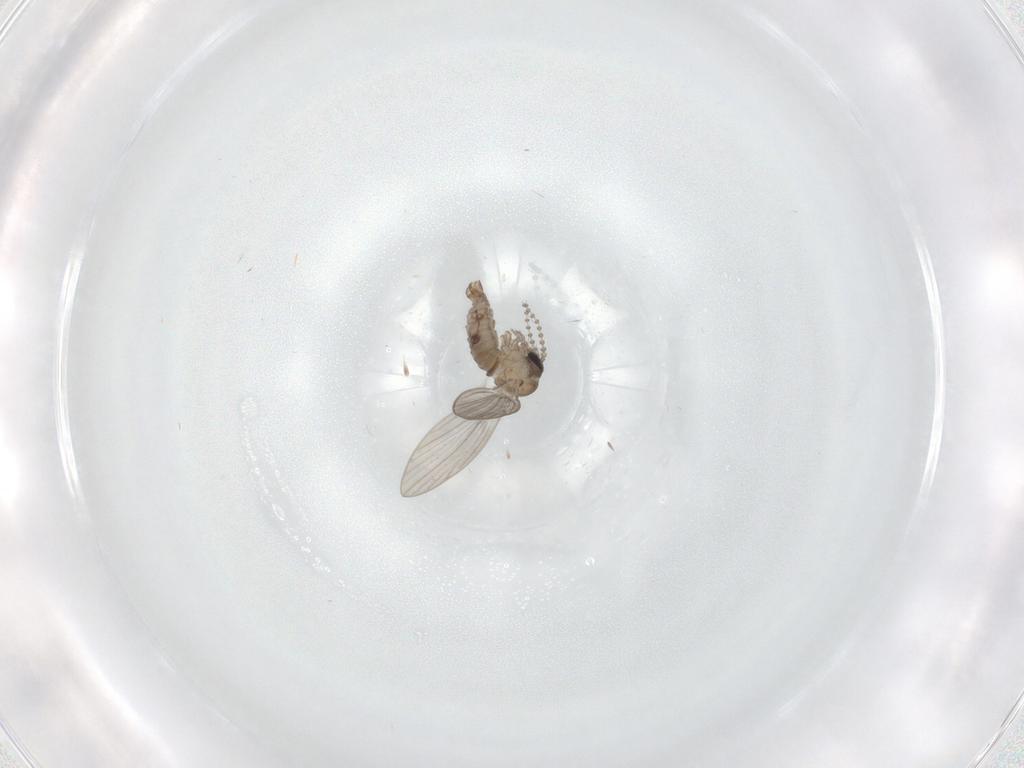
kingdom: Animalia
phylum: Arthropoda
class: Insecta
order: Diptera
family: Psychodidae
